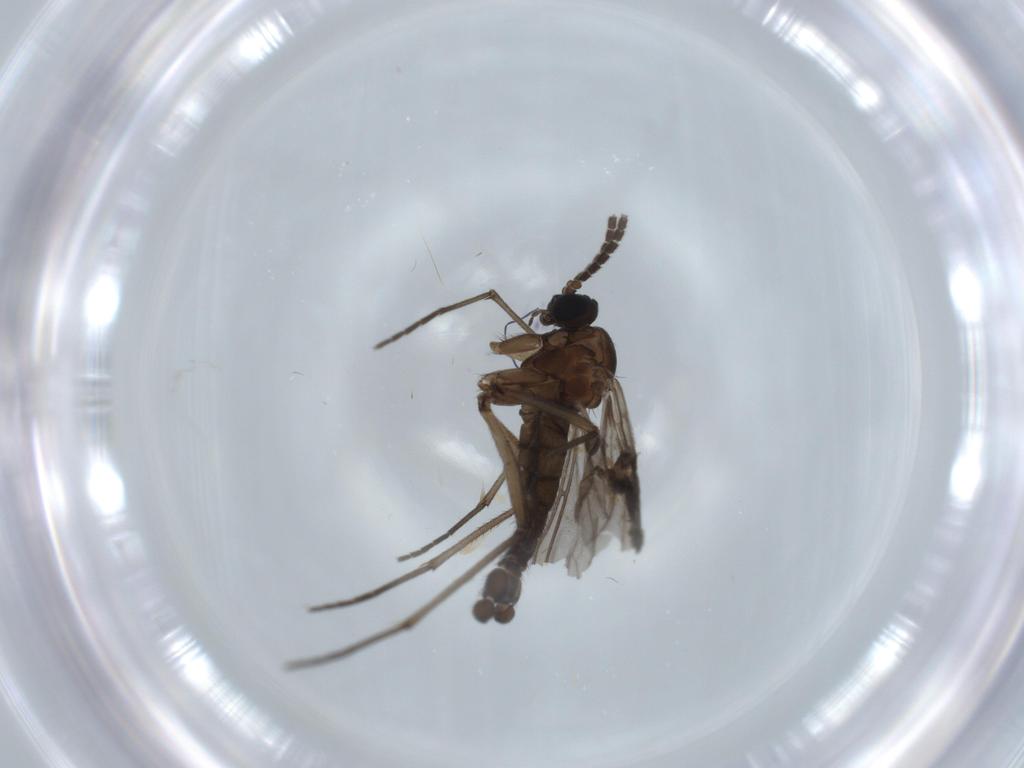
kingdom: Animalia
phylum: Arthropoda
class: Insecta
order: Diptera
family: Sciaridae
